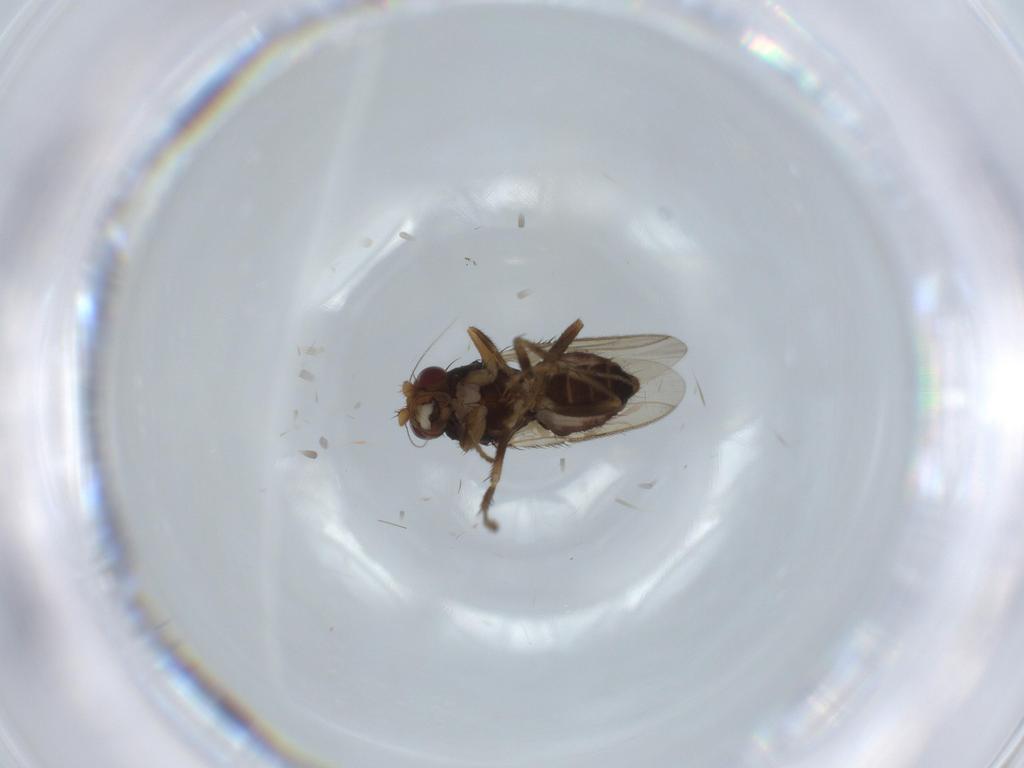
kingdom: Animalia
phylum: Arthropoda
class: Insecta
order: Diptera
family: Sphaeroceridae
